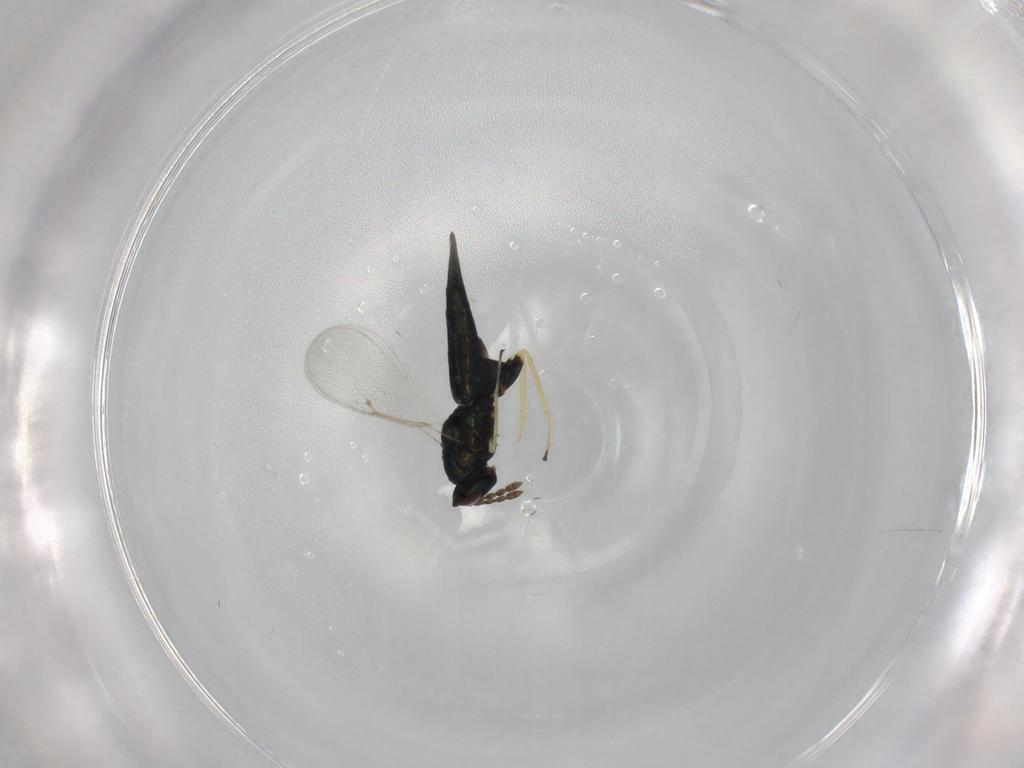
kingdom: Animalia
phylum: Arthropoda
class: Insecta
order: Hymenoptera
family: Eulophidae
